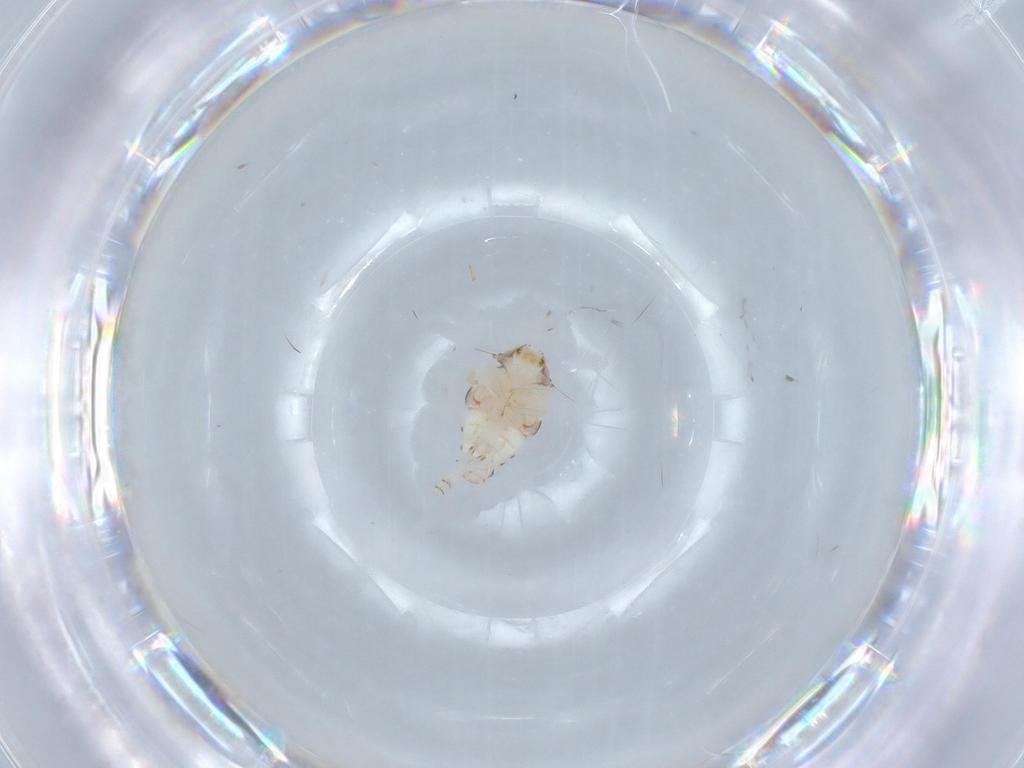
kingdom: Animalia
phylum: Arthropoda
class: Insecta
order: Hemiptera
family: Nogodinidae
